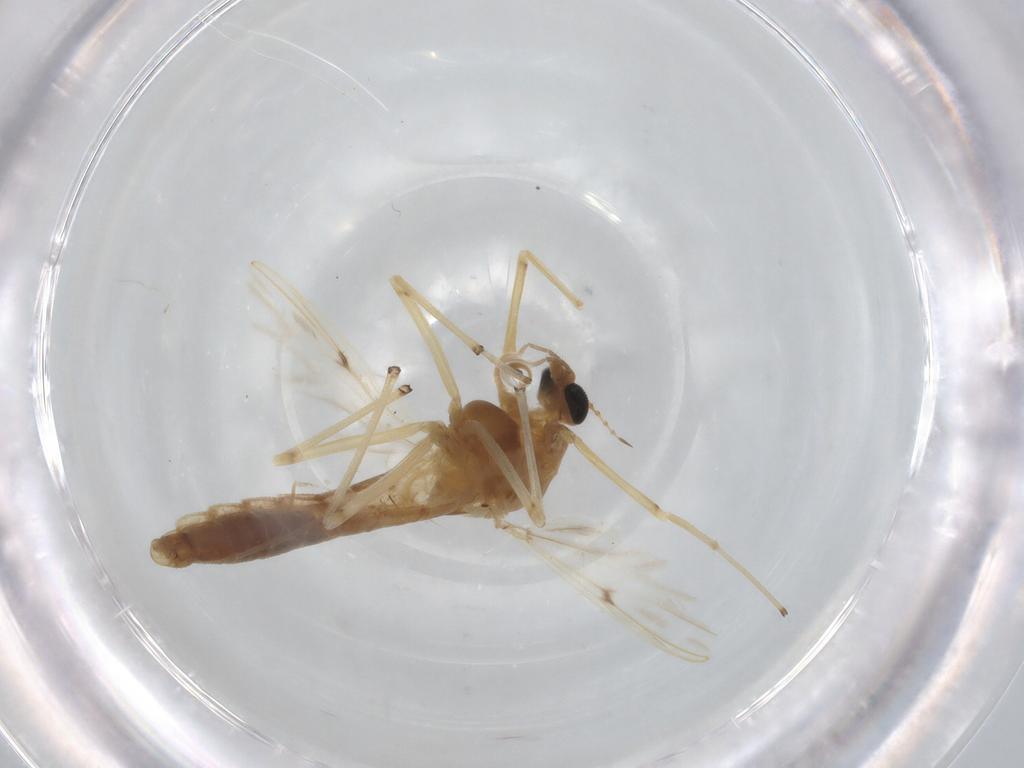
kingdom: Animalia
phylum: Arthropoda
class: Insecta
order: Diptera
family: Chironomidae
